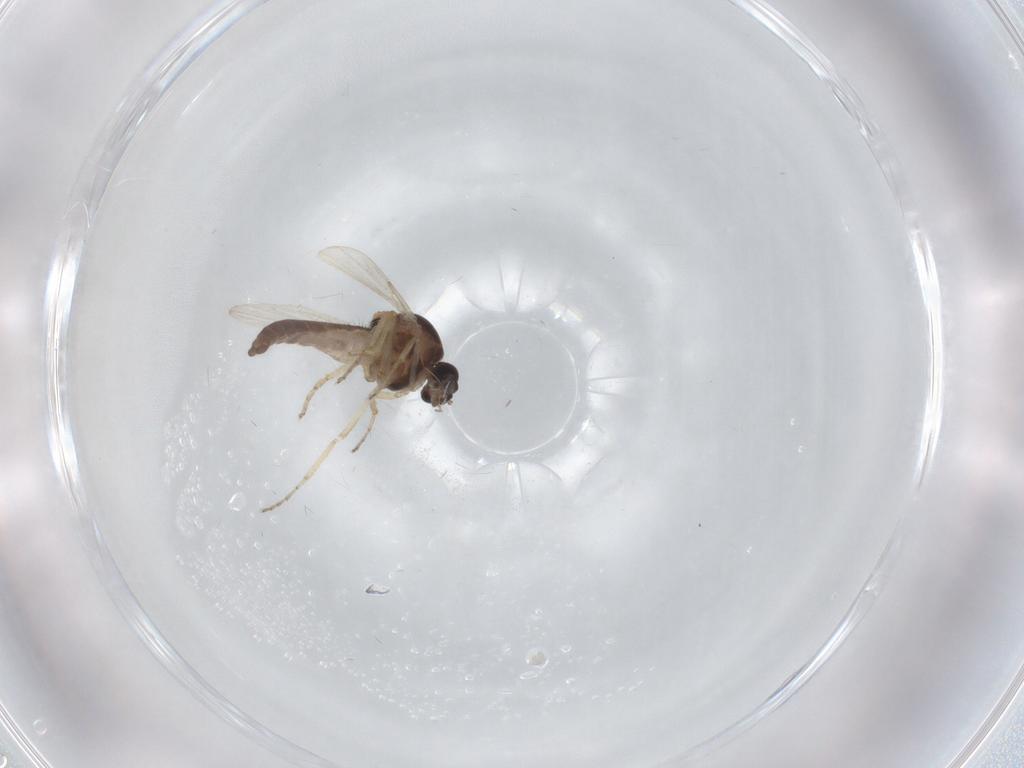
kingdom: Animalia
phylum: Arthropoda
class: Insecta
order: Diptera
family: Ceratopogonidae
